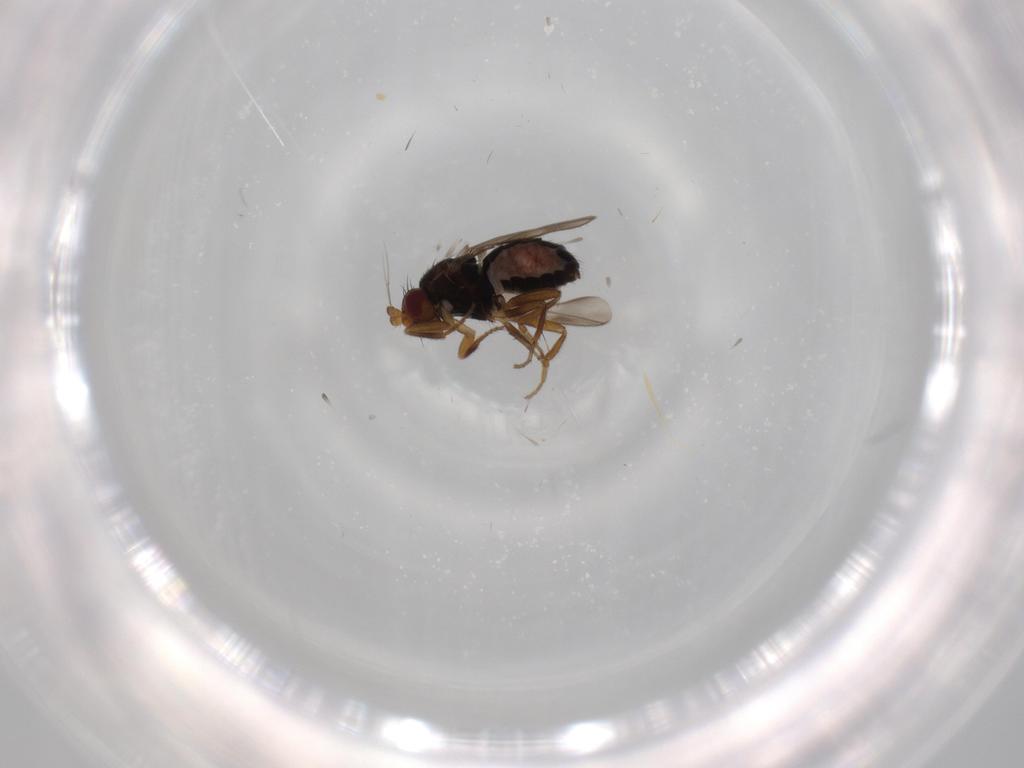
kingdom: Animalia
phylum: Arthropoda
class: Insecta
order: Diptera
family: Sphaeroceridae
